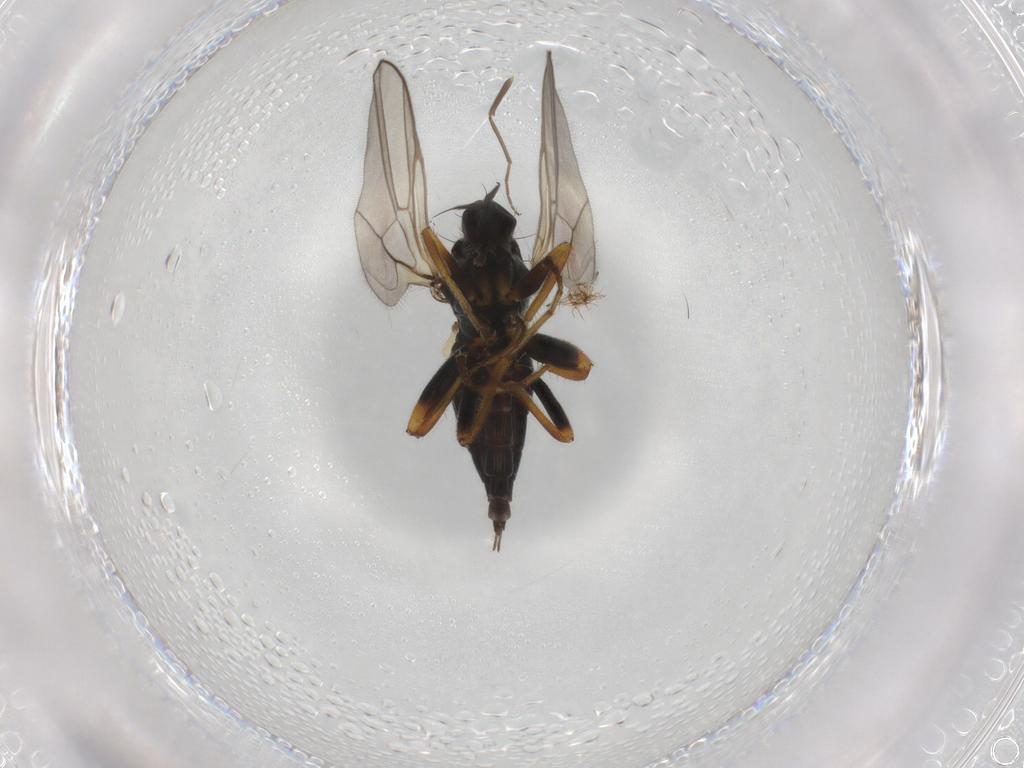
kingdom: Animalia
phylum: Arthropoda
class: Insecta
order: Diptera
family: Hybotidae
